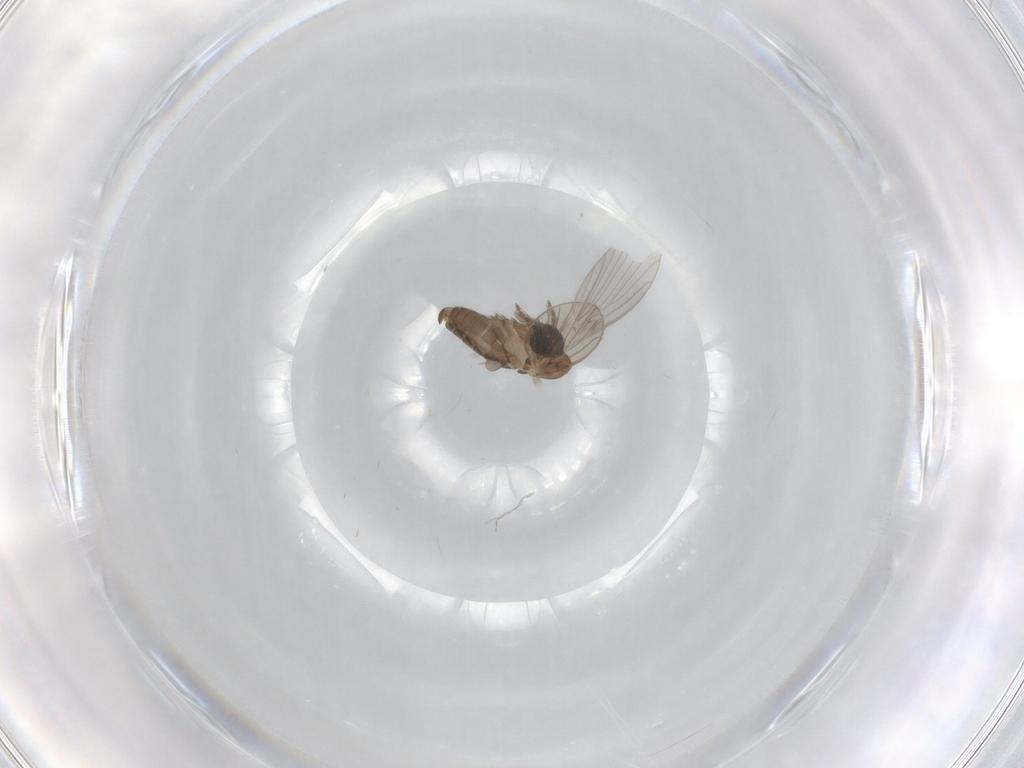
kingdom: Animalia
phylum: Arthropoda
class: Insecta
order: Diptera
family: Psychodidae
